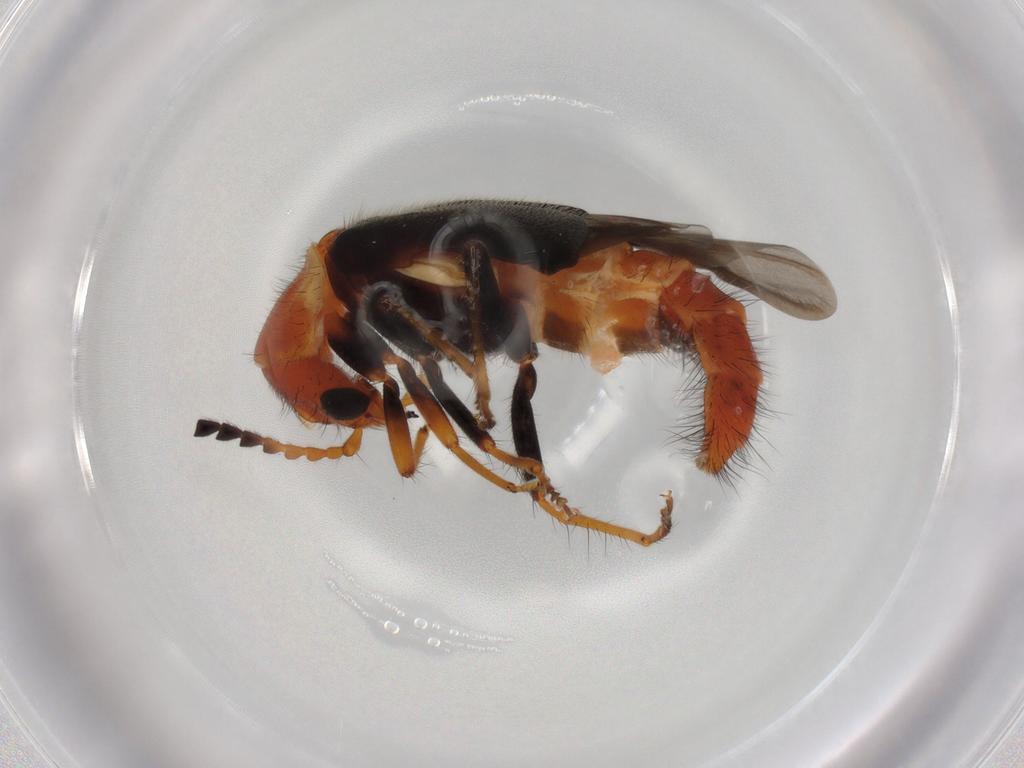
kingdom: Animalia
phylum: Arthropoda
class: Insecta
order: Coleoptera
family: Melyridae
